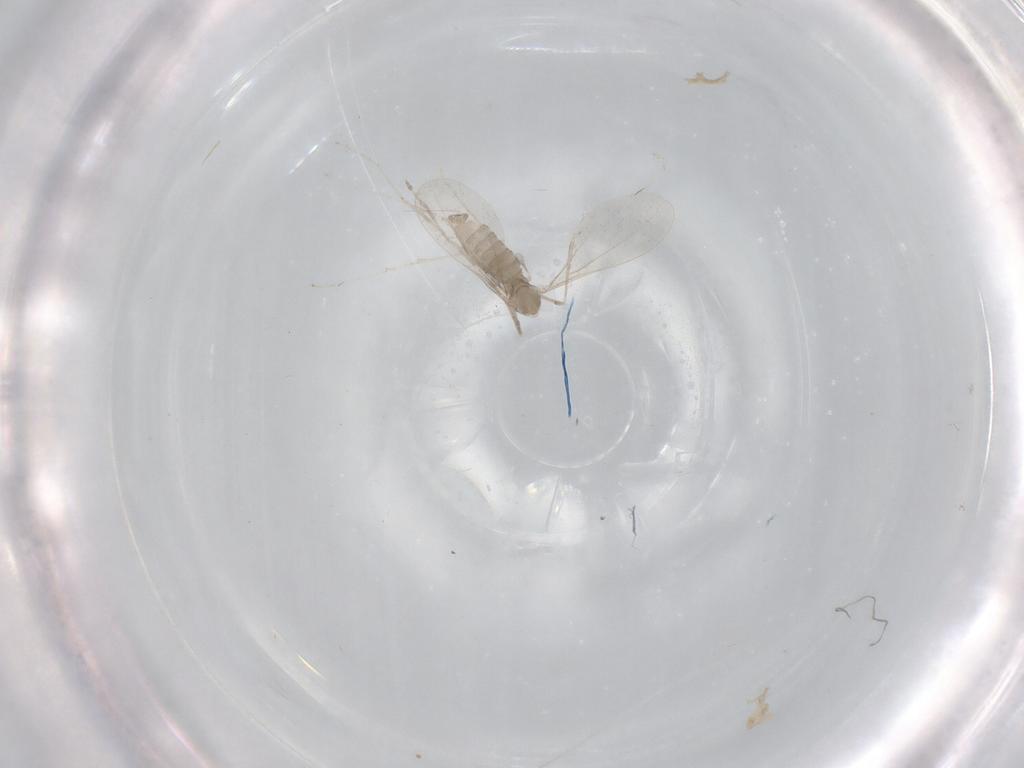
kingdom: Animalia
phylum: Arthropoda
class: Insecta
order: Diptera
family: Cecidomyiidae
